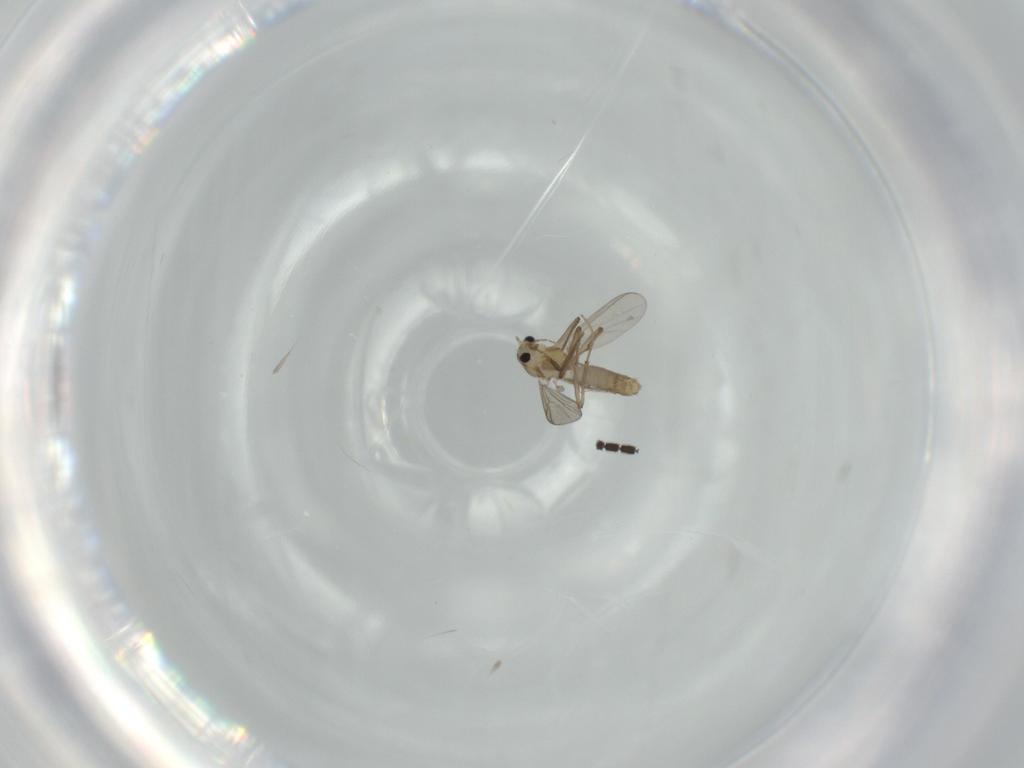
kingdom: Animalia
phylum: Arthropoda
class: Insecta
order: Diptera
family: Sciaridae
